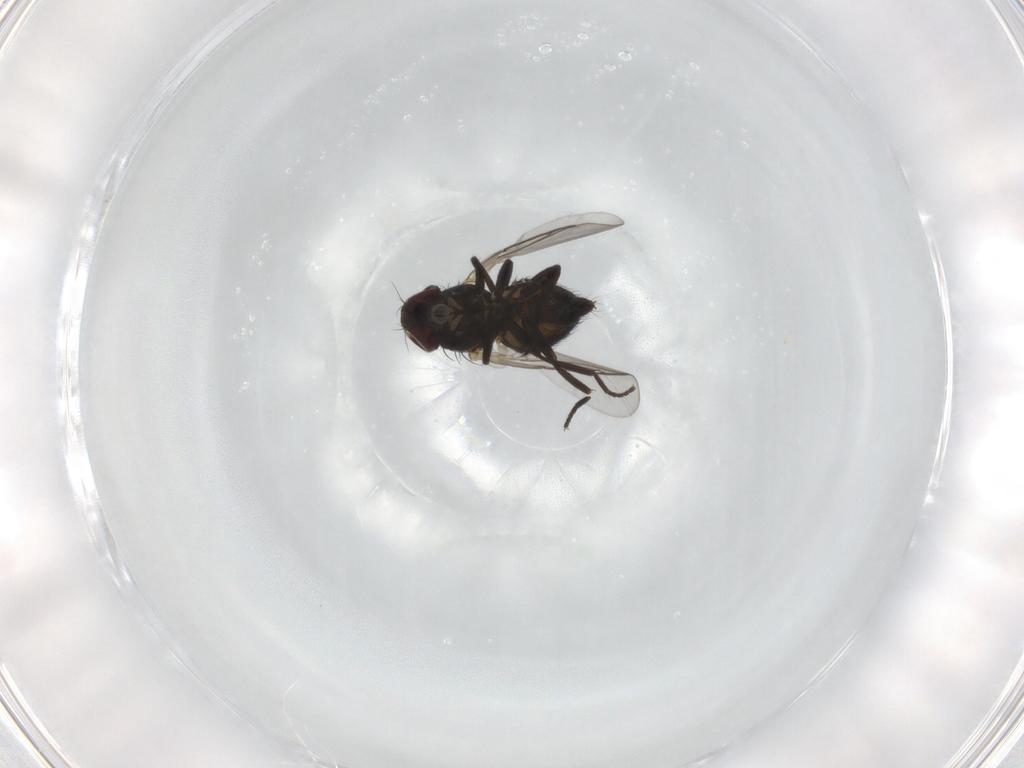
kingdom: Animalia
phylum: Arthropoda
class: Insecta
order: Diptera
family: Agromyzidae
